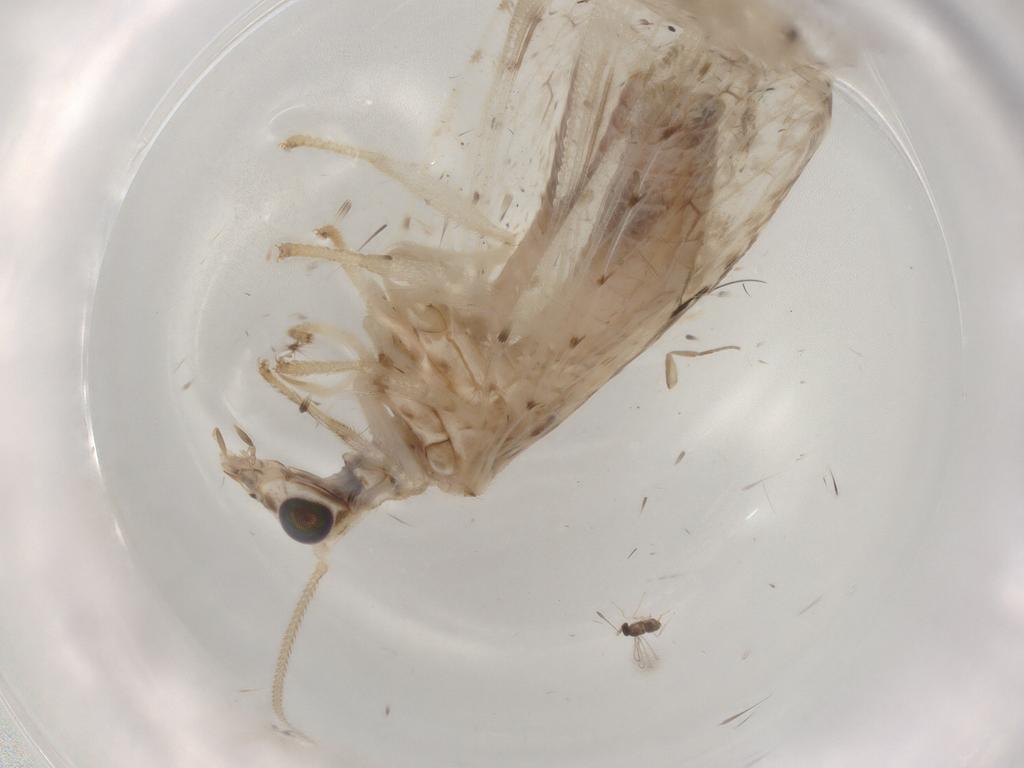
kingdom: Animalia
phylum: Arthropoda
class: Insecta
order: Neuroptera
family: Hemerobiidae
